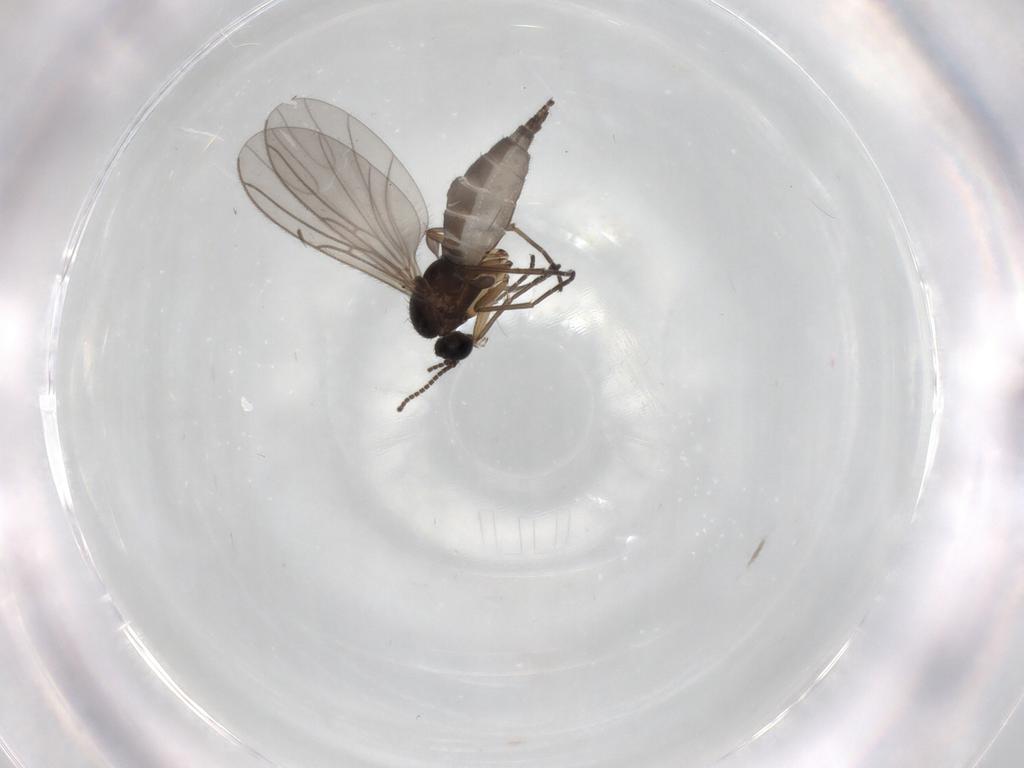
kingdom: Animalia
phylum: Arthropoda
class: Insecta
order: Diptera
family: Sciaridae
